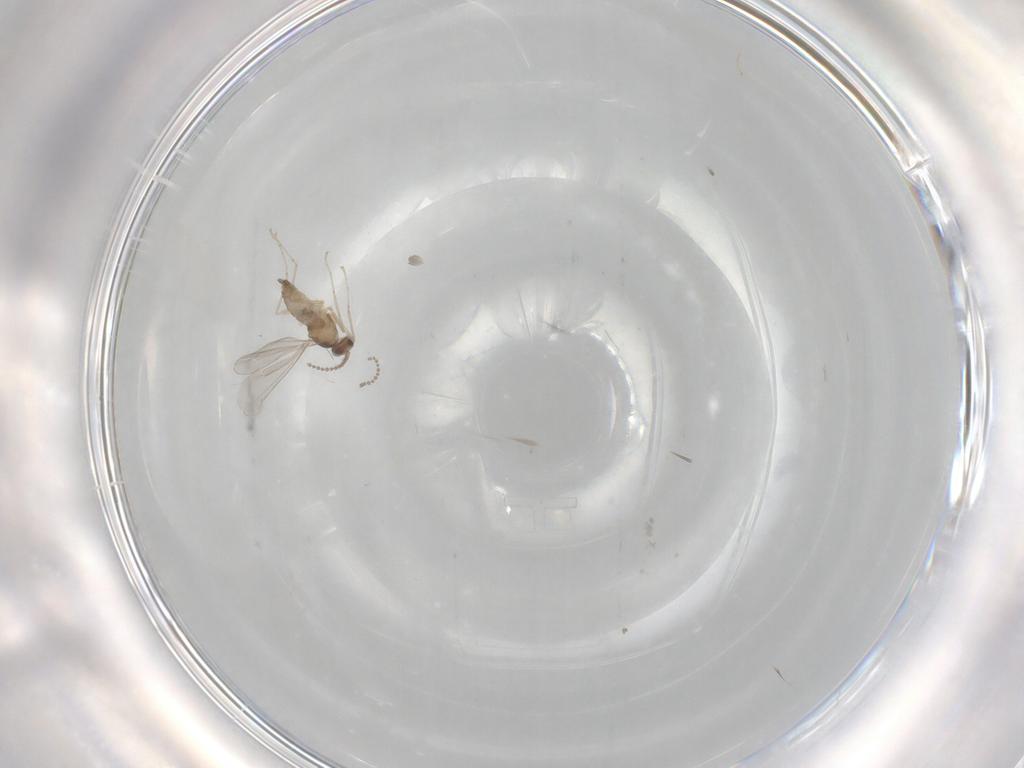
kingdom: Animalia
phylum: Arthropoda
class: Insecta
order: Diptera
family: Cecidomyiidae
